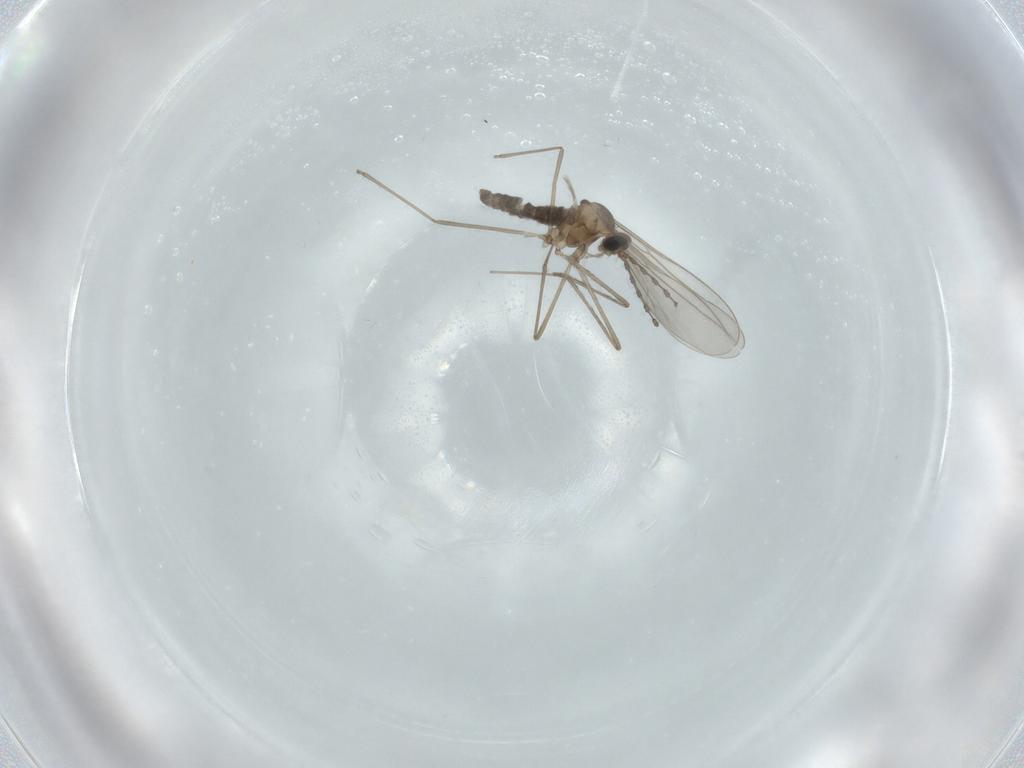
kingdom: Animalia
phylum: Arthropoda
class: Insecta
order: Diptera
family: Cecidomyiidae
